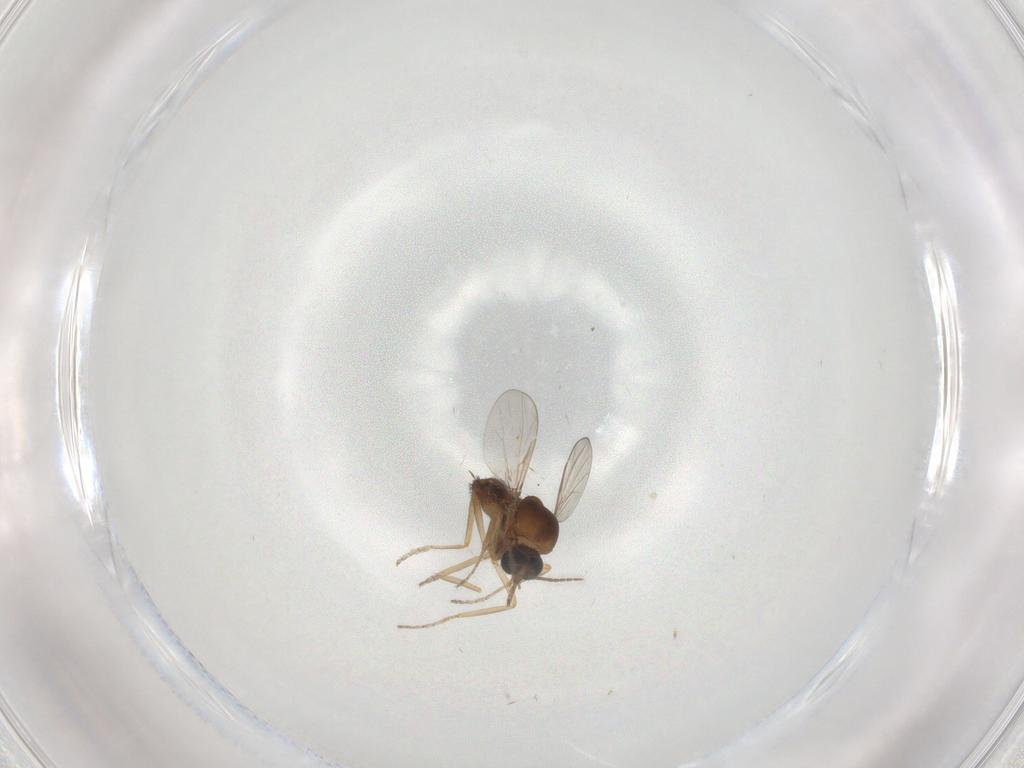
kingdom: Animalia
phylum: Arthropoda
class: Insecta
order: Diptera
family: Ceratopogonidae
